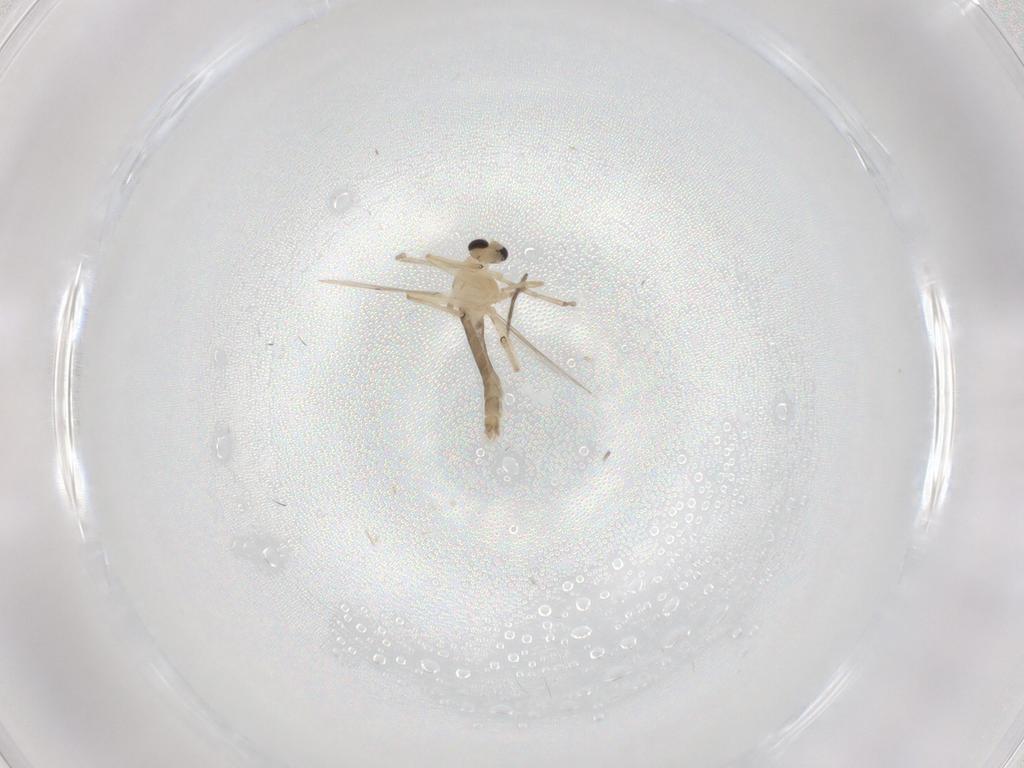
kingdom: Animalia
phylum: Arthropoda
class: Insecta
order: Diptera
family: Chironomidae
